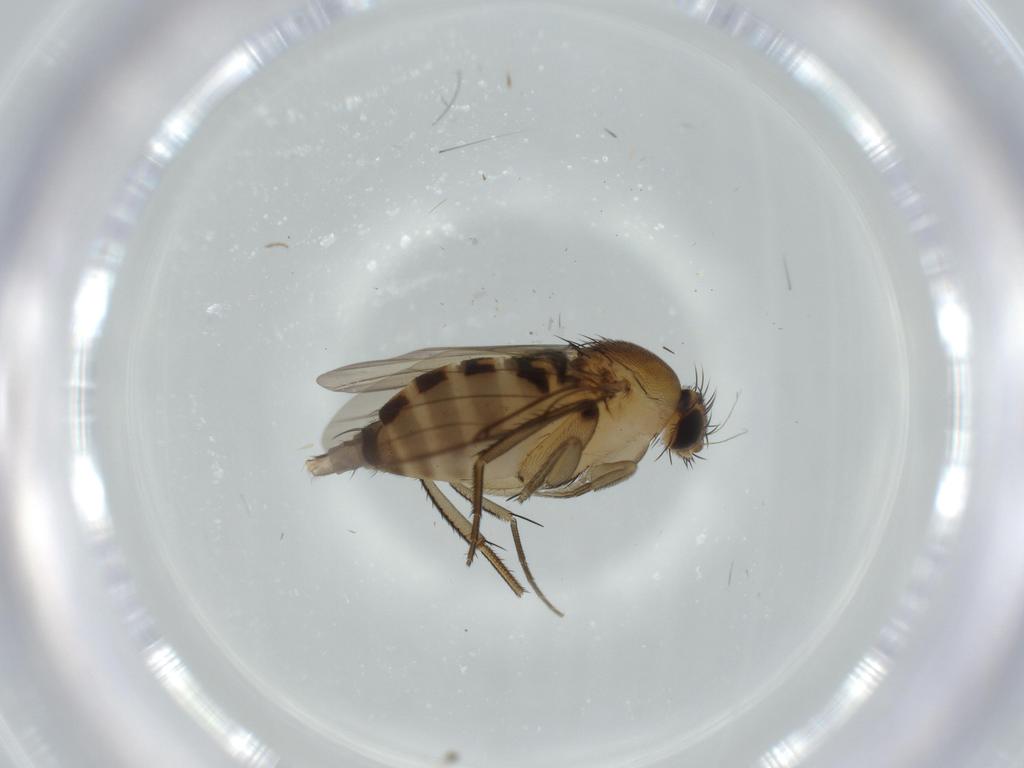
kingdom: Animalia
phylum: Arthropoda
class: Insecta
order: Diptera
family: Phoridae
